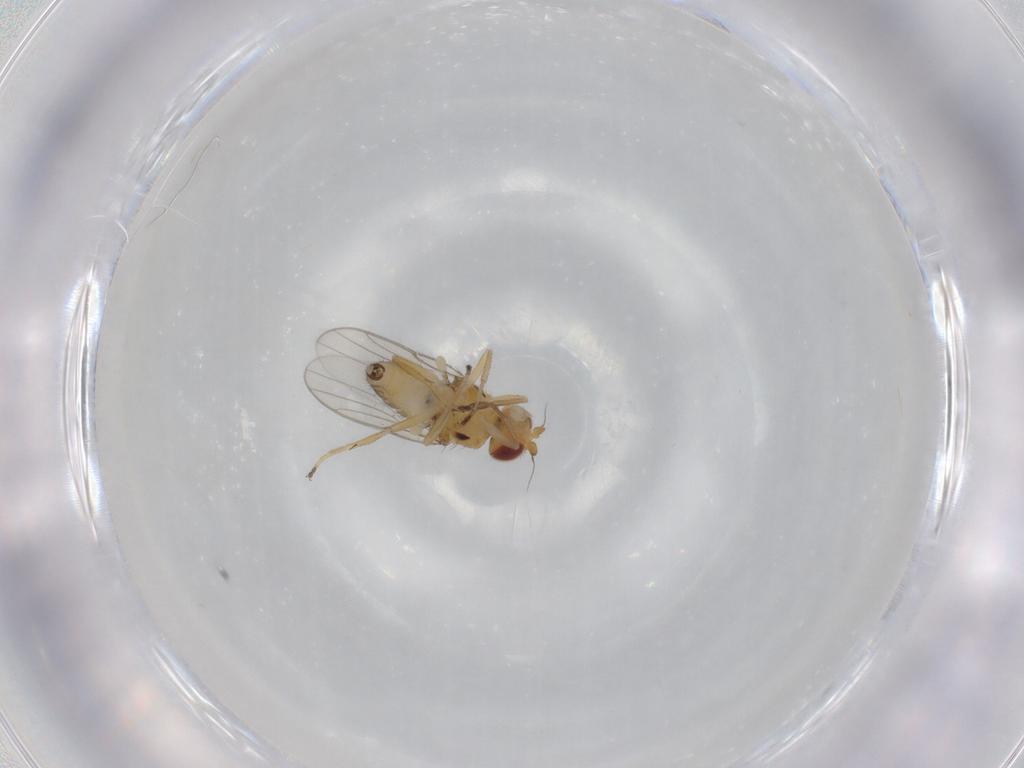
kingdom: Animalia
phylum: Arthropoda
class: Insecta
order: Diptera
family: Chloropidae
